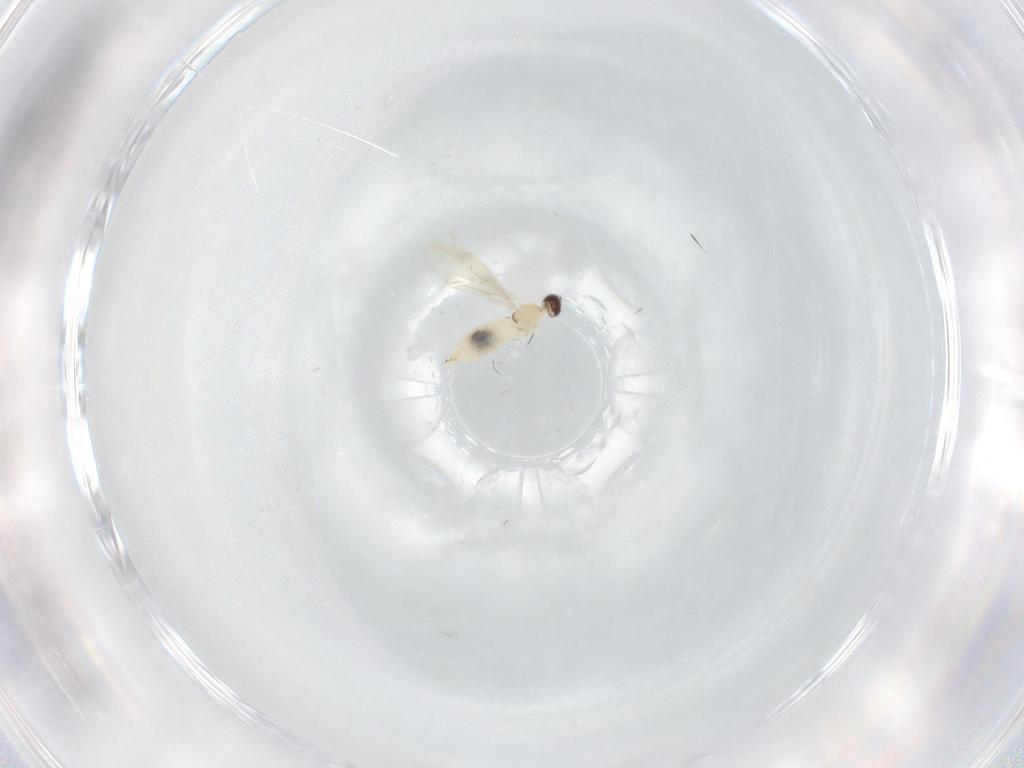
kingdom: Animalia
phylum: Arthropoda
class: Insecta
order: Diptera
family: Cecidomyiidae
